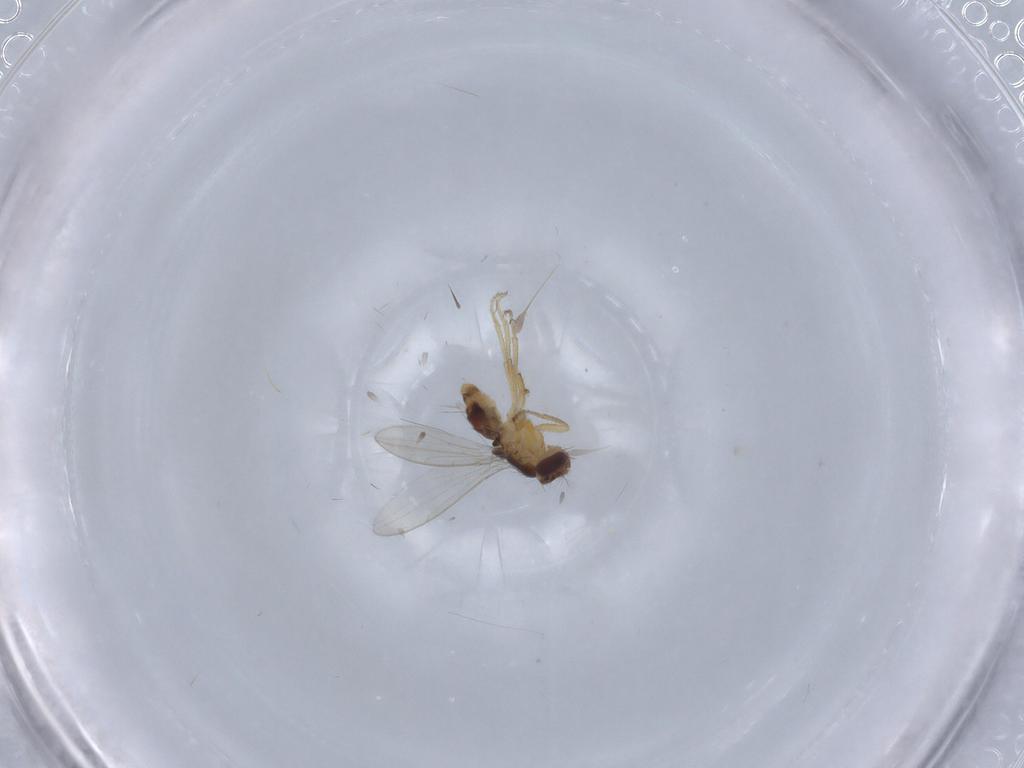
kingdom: Animalia
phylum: Arthropoda
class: Insecta
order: Diptera
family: Periscelididae
